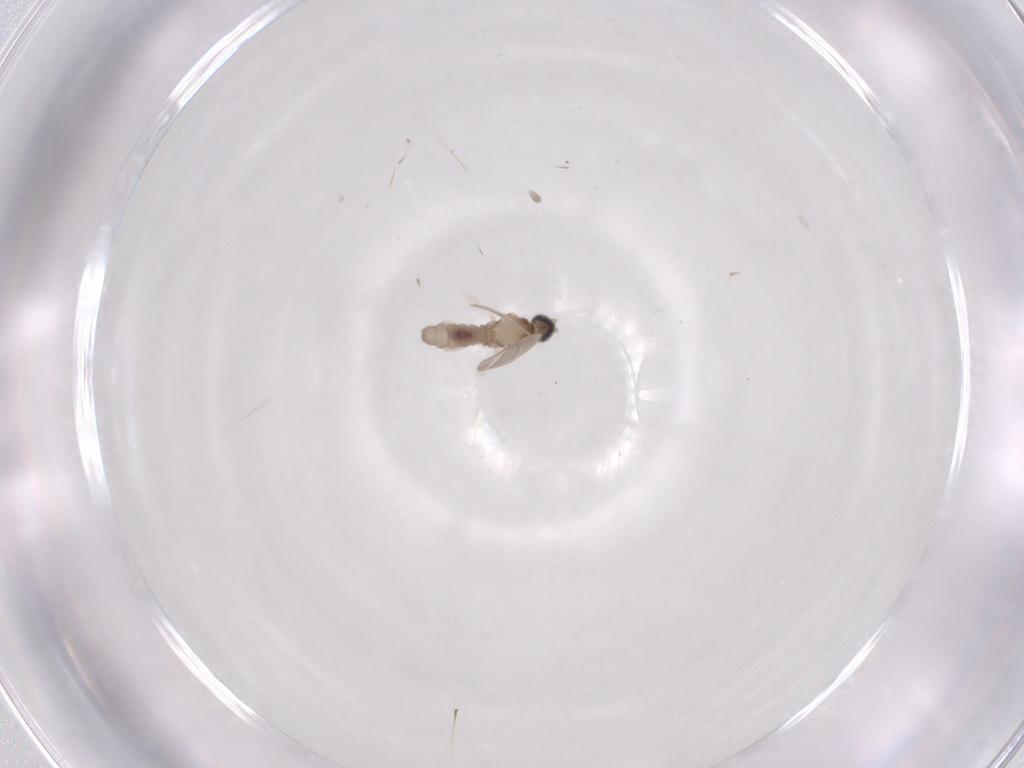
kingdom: Animalia
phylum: Arthropoda
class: Insecta
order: Diptera
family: Cecidomyiidae
